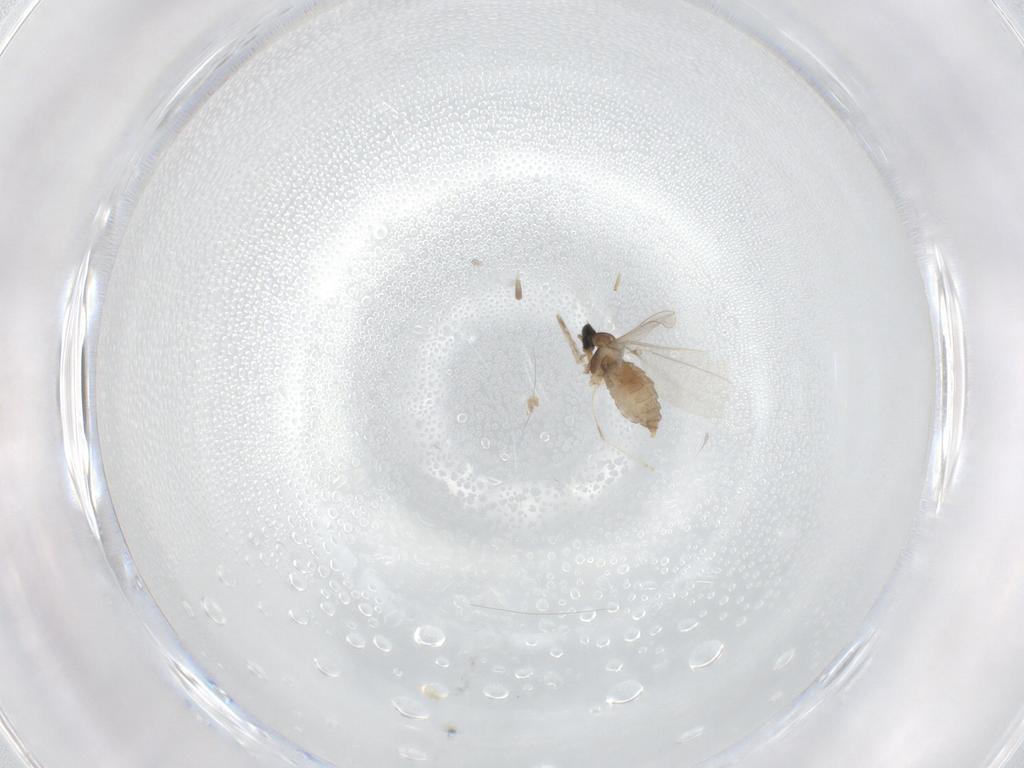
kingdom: Animalia
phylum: Arthropoda
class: Insecta
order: Diptera
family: Ceratopogonidae
